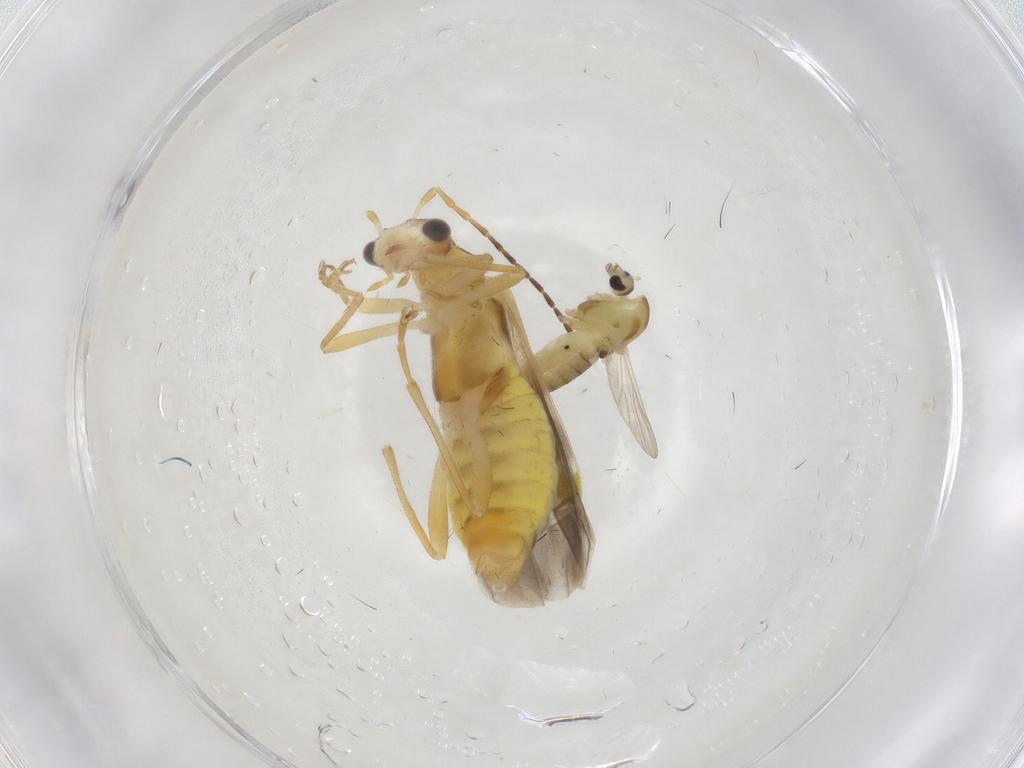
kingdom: Animalia
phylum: Arthropoda
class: Insecta
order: Coleoptera
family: Cantharidae
